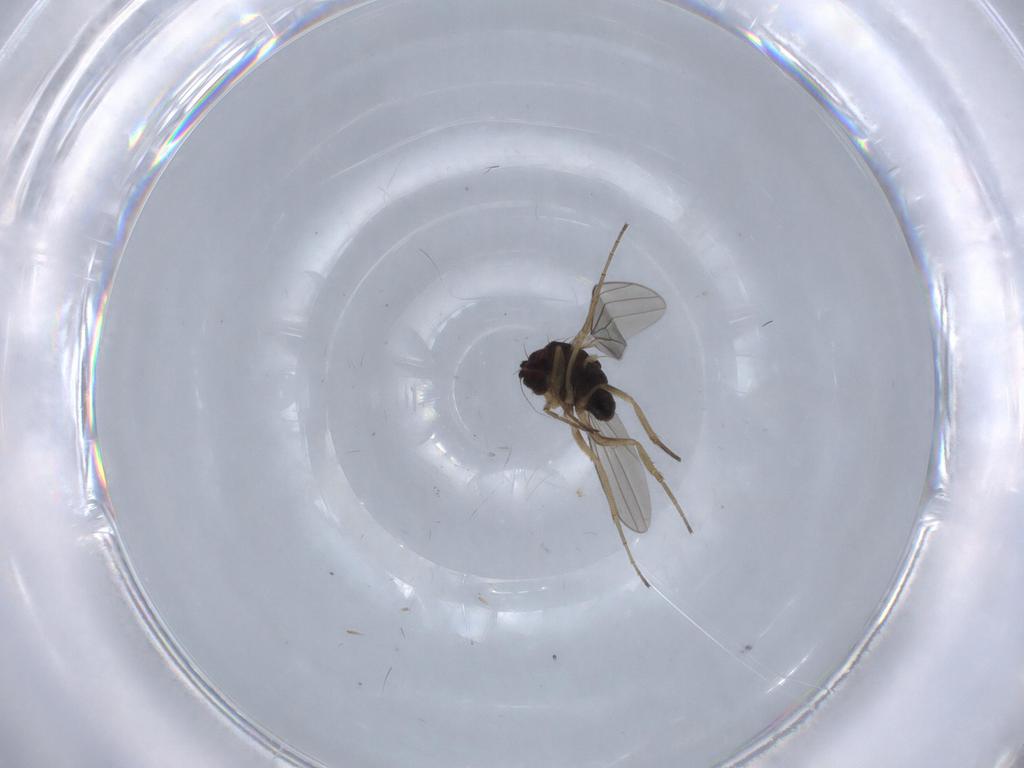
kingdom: Animalia
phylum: Arthropoda
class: Insecta
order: Diptera
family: Dolichopodidae
